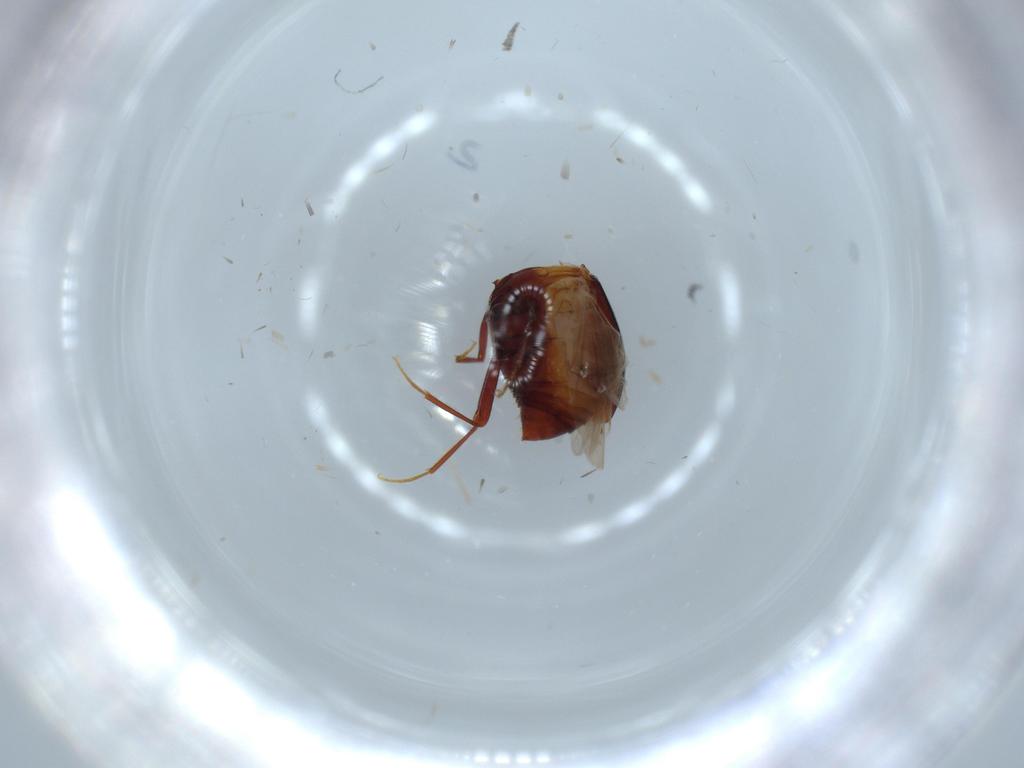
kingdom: Animalia
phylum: Arthropoda
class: Insecta
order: Coleoptera
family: Staphylinidae
